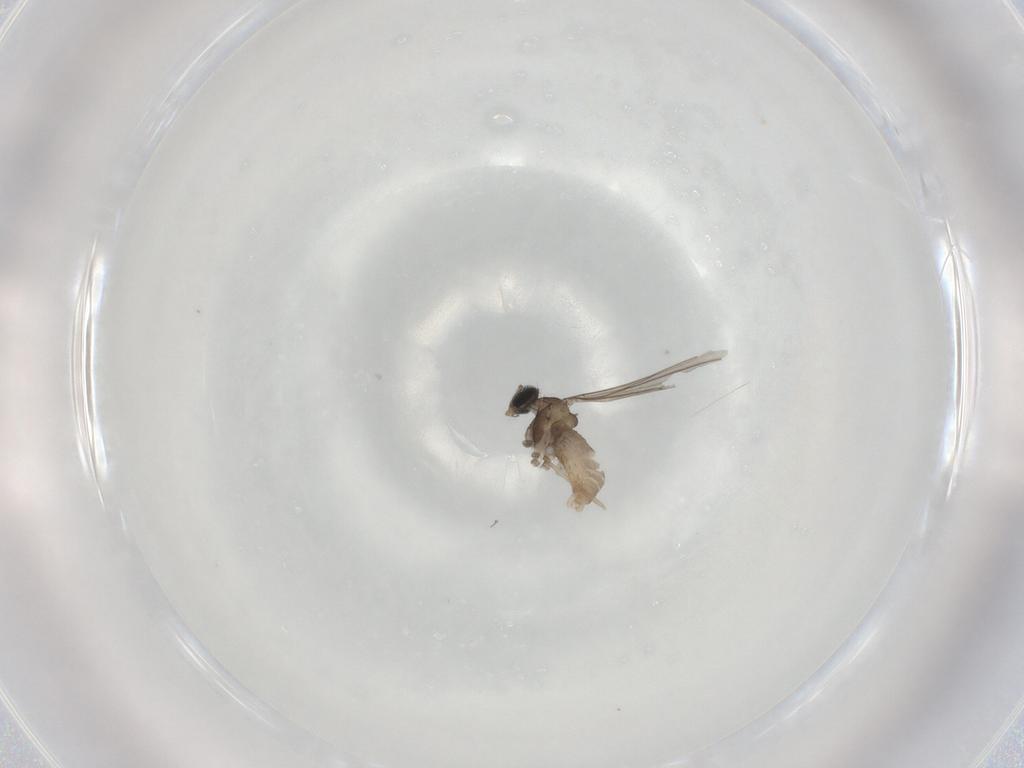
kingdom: Animalia
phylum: Arthropoda
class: Insecta
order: Diptera
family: Cecidomyiidae
